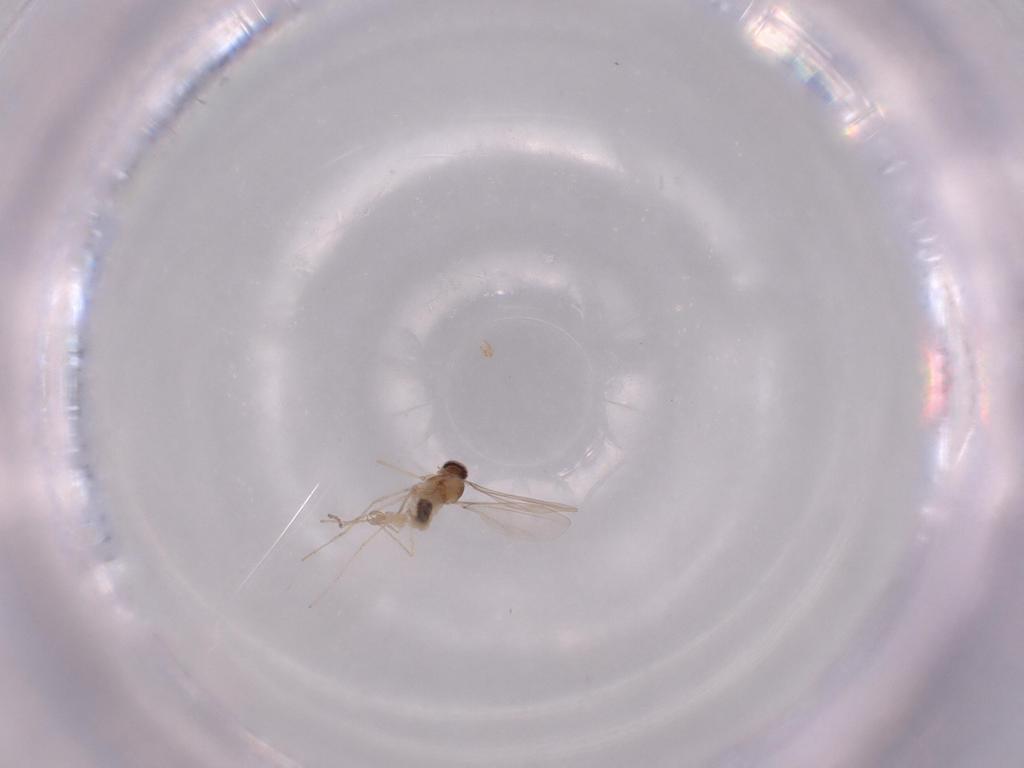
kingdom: Animalia
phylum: Arthropoda
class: Insecta
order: Diptera
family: Cecidomyiidae
